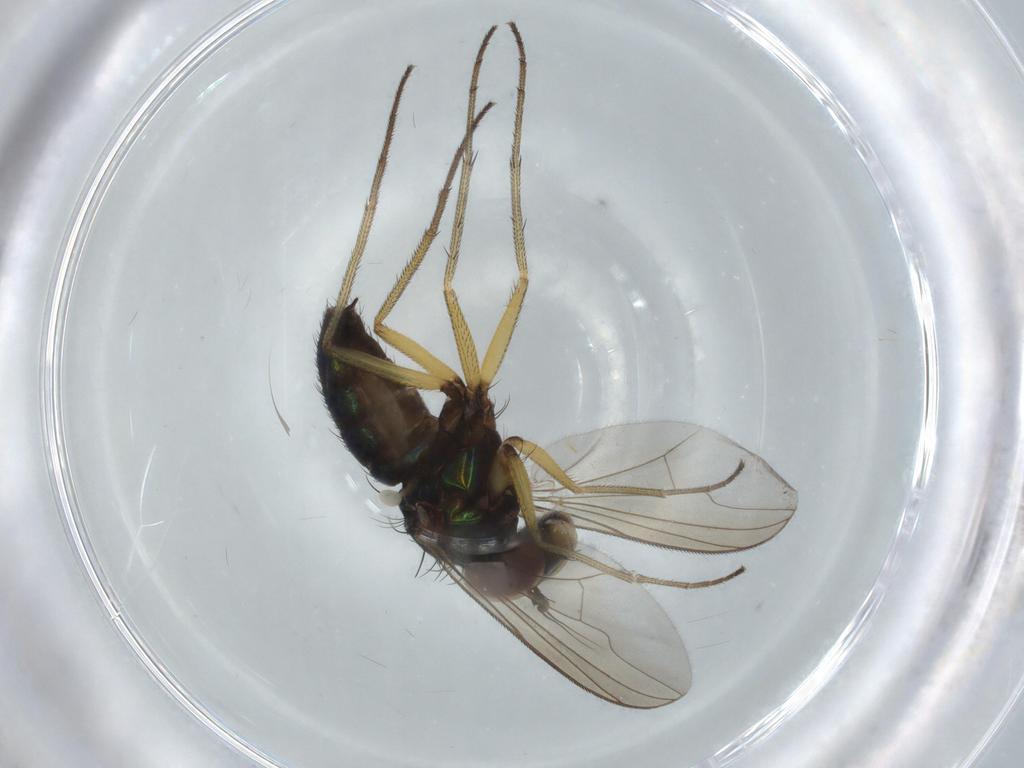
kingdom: Animalia
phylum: Arthropoda
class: Insecta
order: Diptera
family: Dolichopodidae
